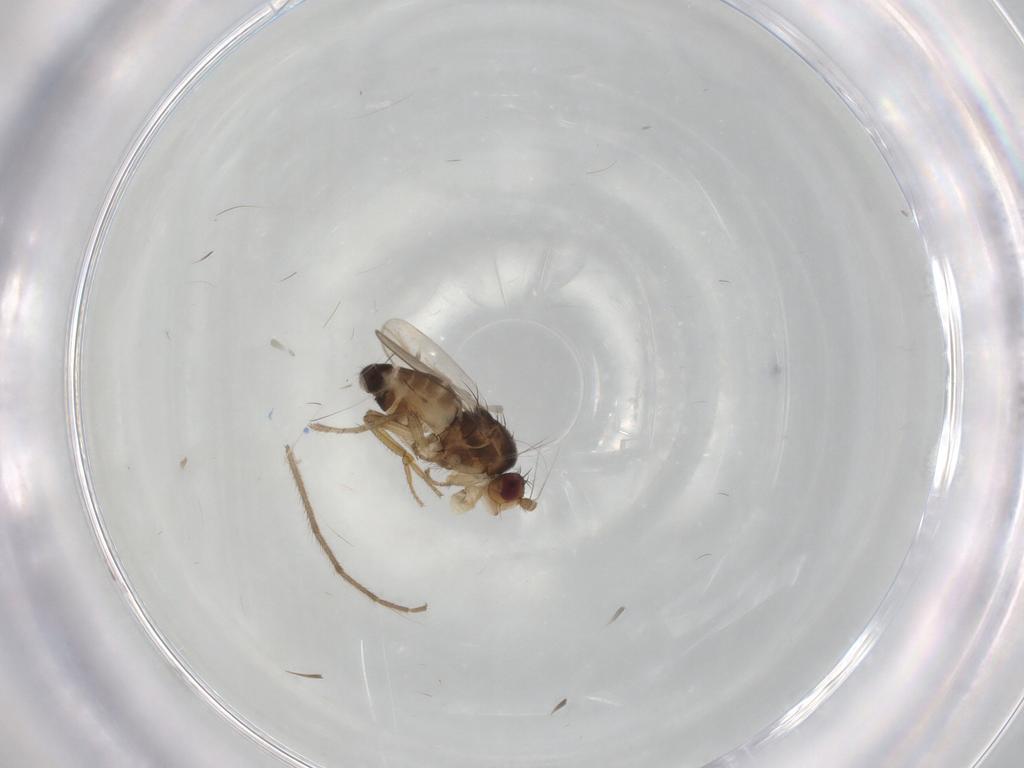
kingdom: Animalia
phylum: Arthropoda
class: Insecta
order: Diptera
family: Chironomidae
